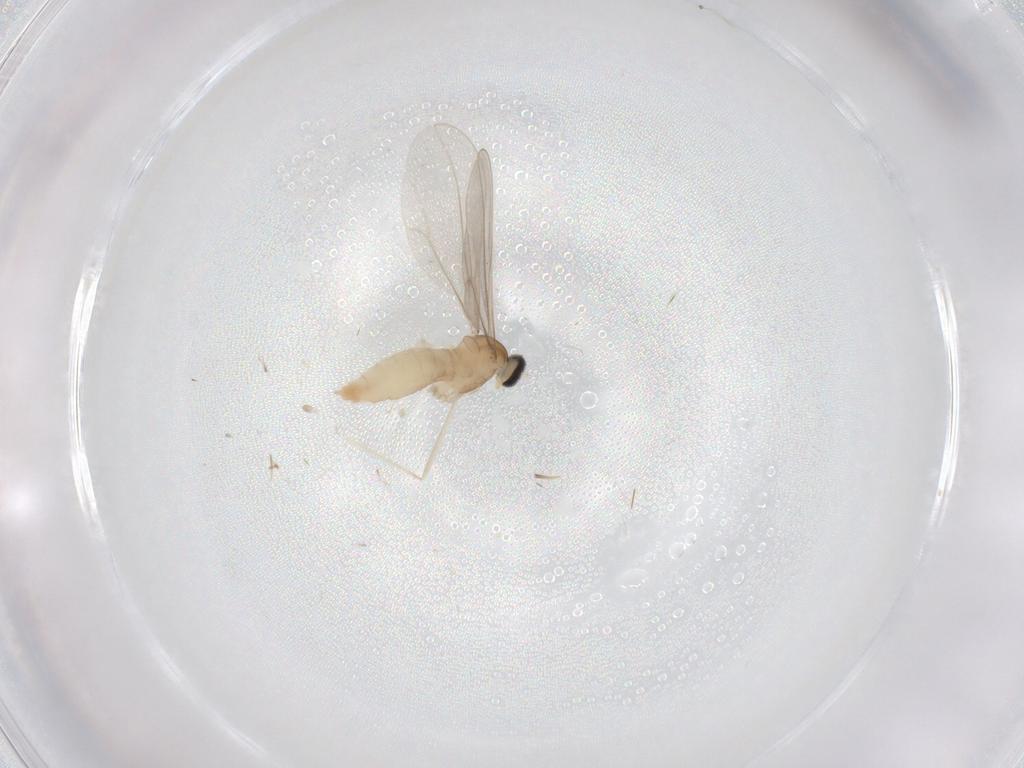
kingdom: Animalia
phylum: Arthropoda
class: Insecta
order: Diptera
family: Cecidomyiidae
